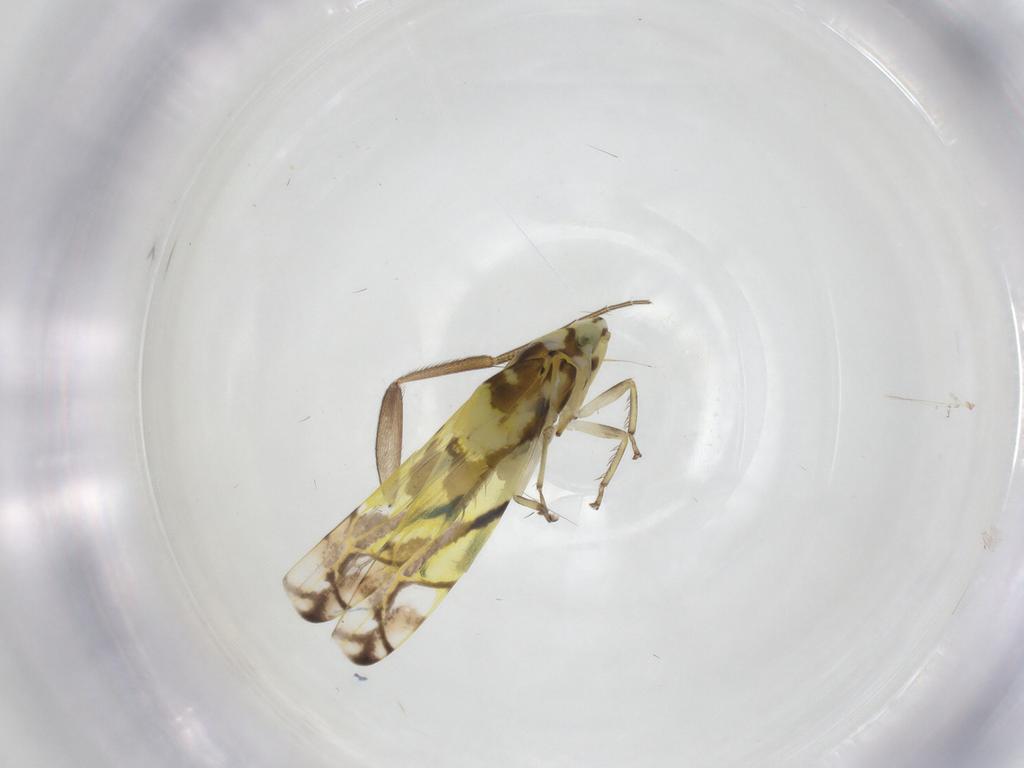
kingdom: Animalia
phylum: Arthropoda
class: Insecta
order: Hemiptera
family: Cicadellidae
